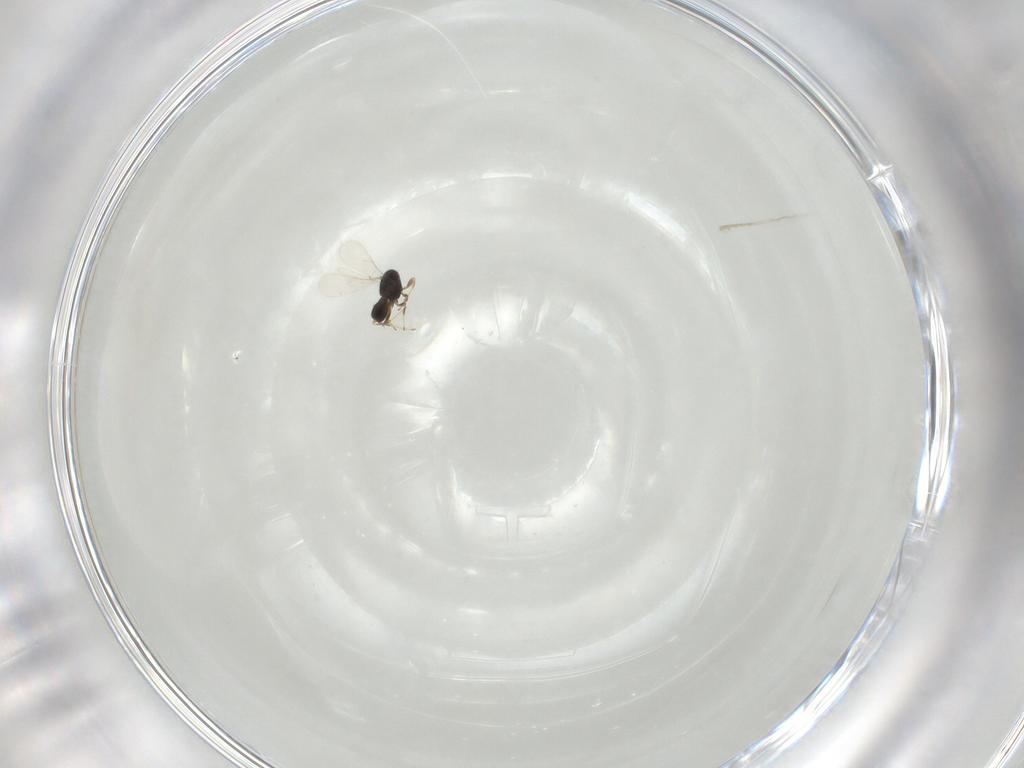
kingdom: Animalia
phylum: Arthropoda
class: Insecta
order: Hymenoptera
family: Scelionidae
